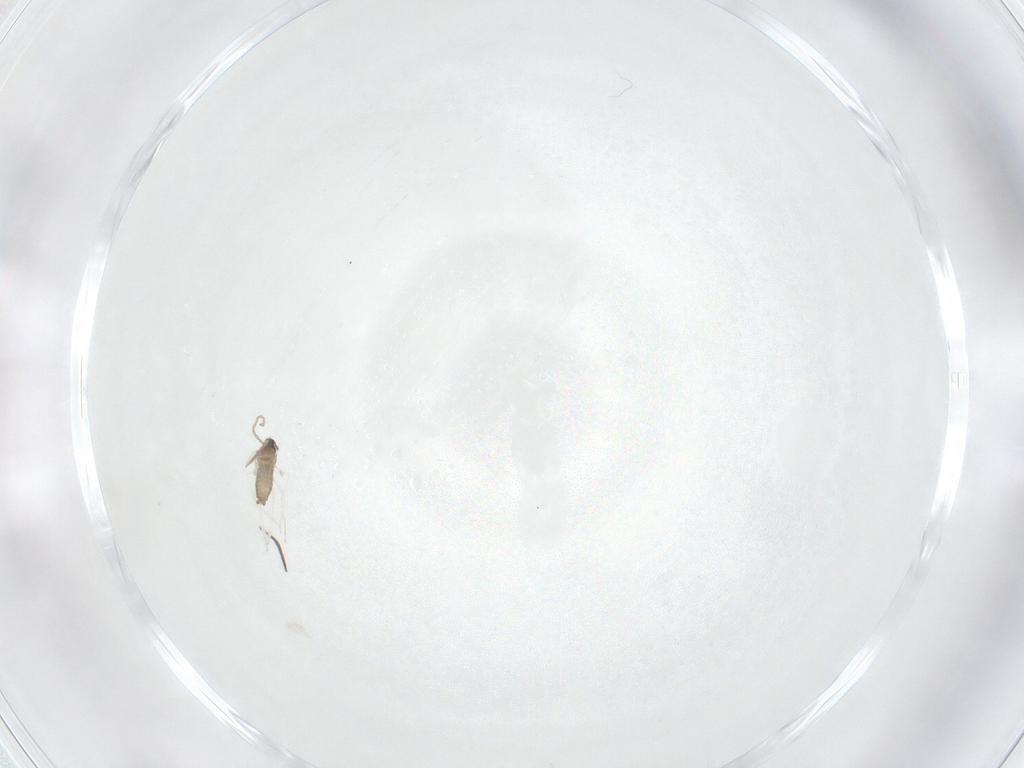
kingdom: Animalia
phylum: Arthropoda
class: Insecta
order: Diptera
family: Cecidomyiidae
